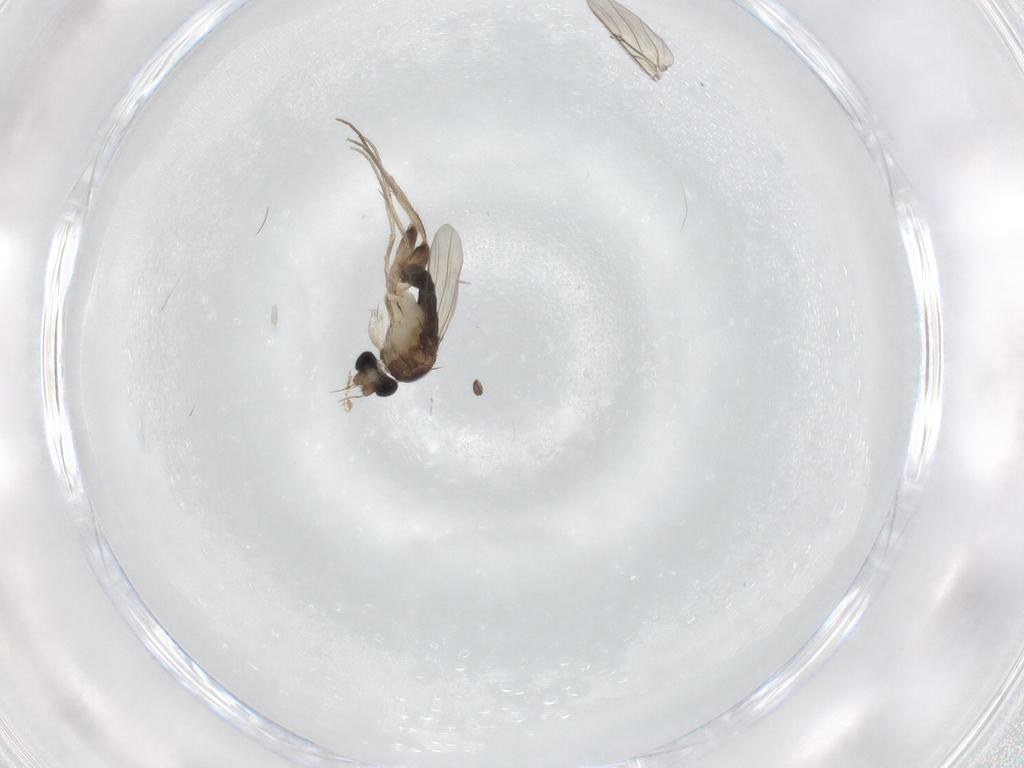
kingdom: Animalia
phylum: Arthropoda
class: Insecta
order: Diptera
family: Phoridae
